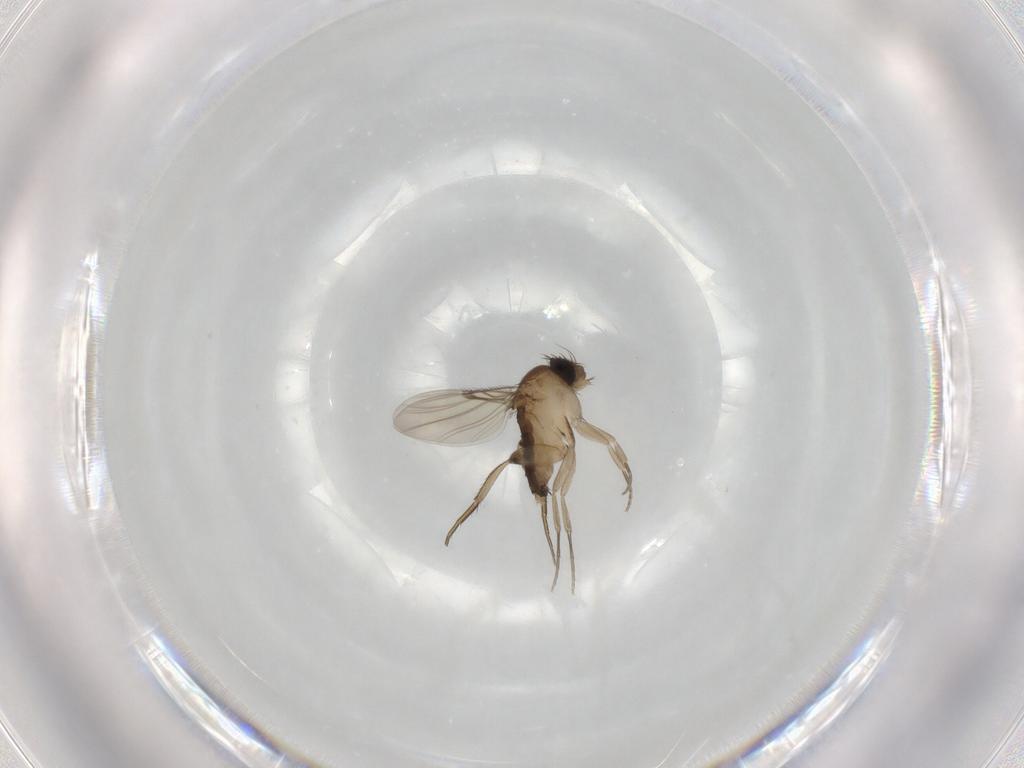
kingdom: Animalia
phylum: Arthropoda
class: Insecta
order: Diptera
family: Phoridae
